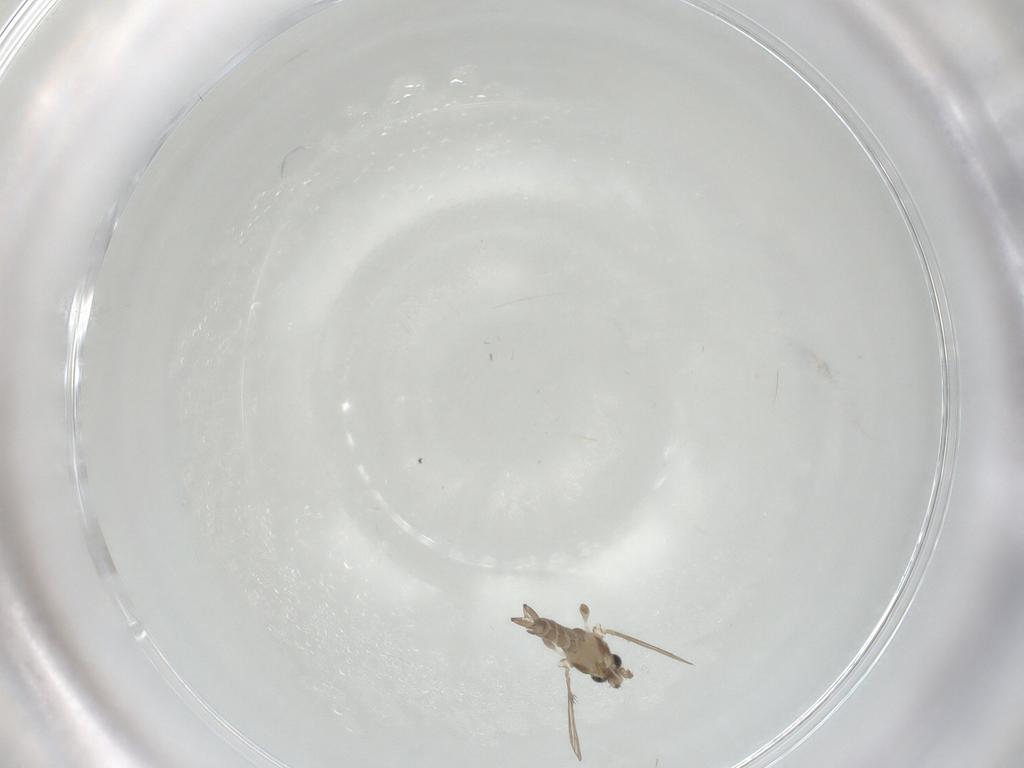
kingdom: Animalia
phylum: Arthropoda
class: Insecta
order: Diptera
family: Psychodidae
